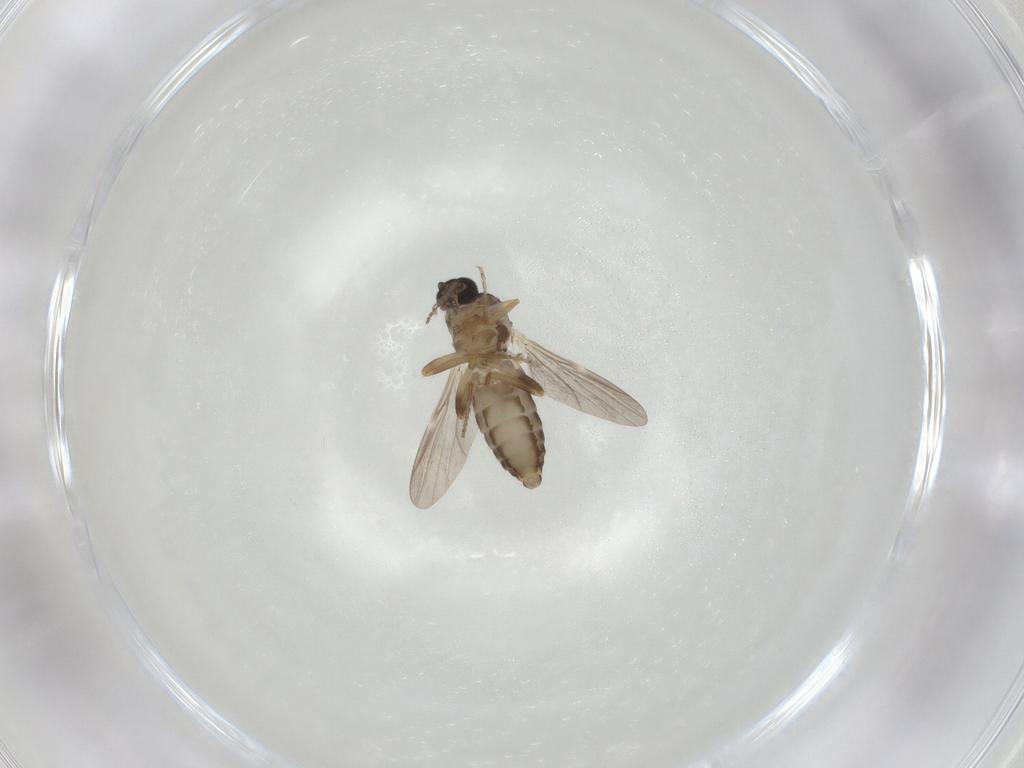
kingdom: Animalia
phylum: Arthropoda
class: Insecta
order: Diptera
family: Ceratopogonidae
